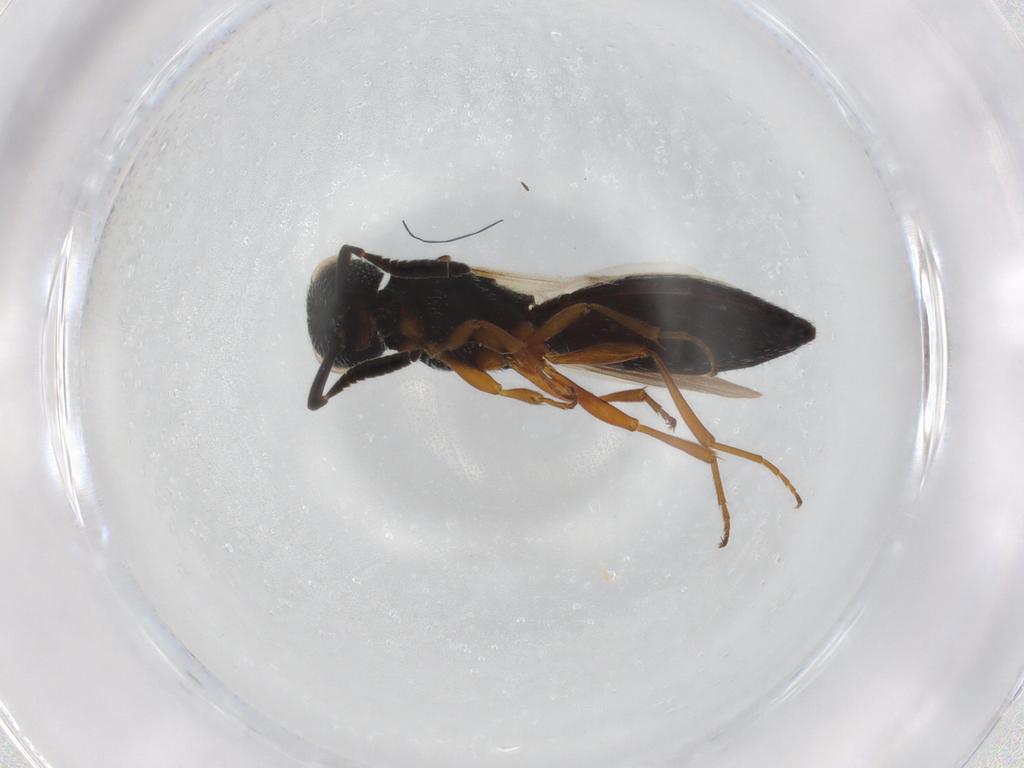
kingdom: Animalia
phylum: Arthropoda
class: Insecta
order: Hymenoptera
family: Scelionidae
